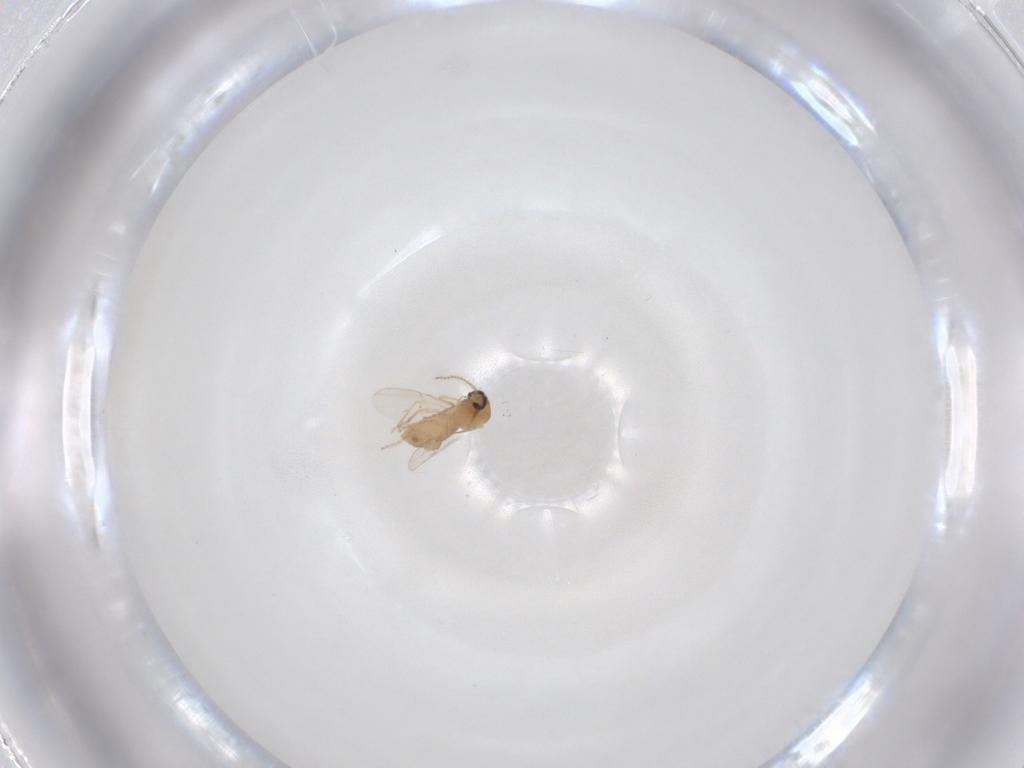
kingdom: Animalia
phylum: Arthropoda
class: Insecta
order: Diptera
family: Ceratopogonidae
